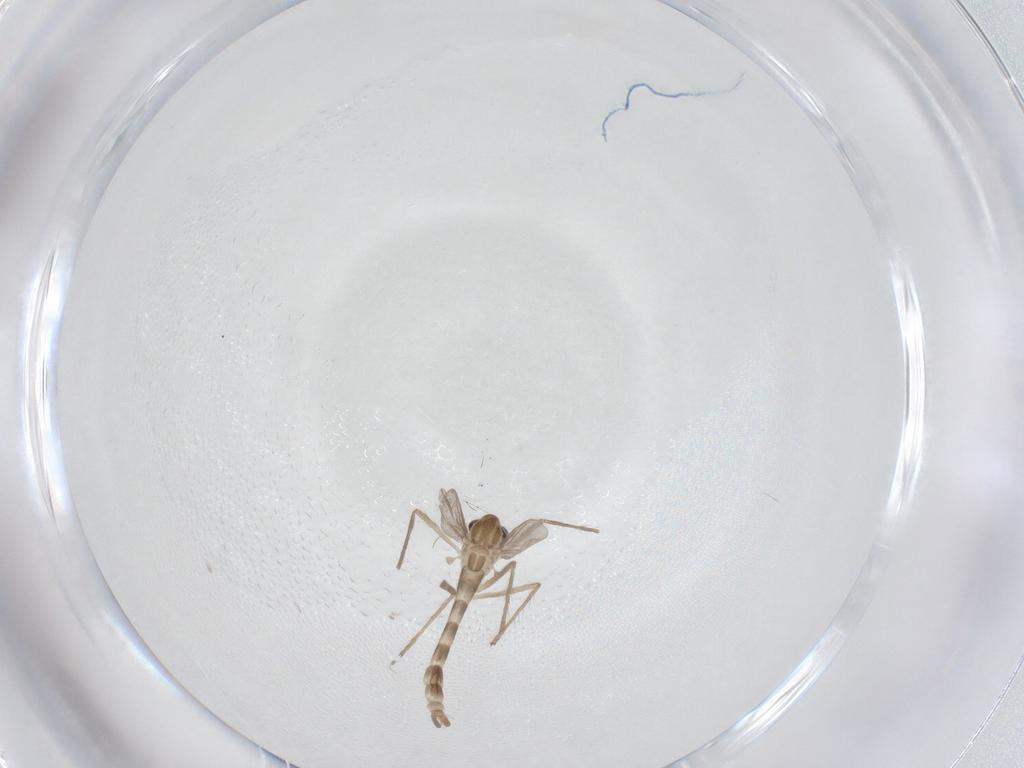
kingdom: Animalia
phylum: Arthropoda
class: Insecta
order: Diptera
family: Chironomidae
